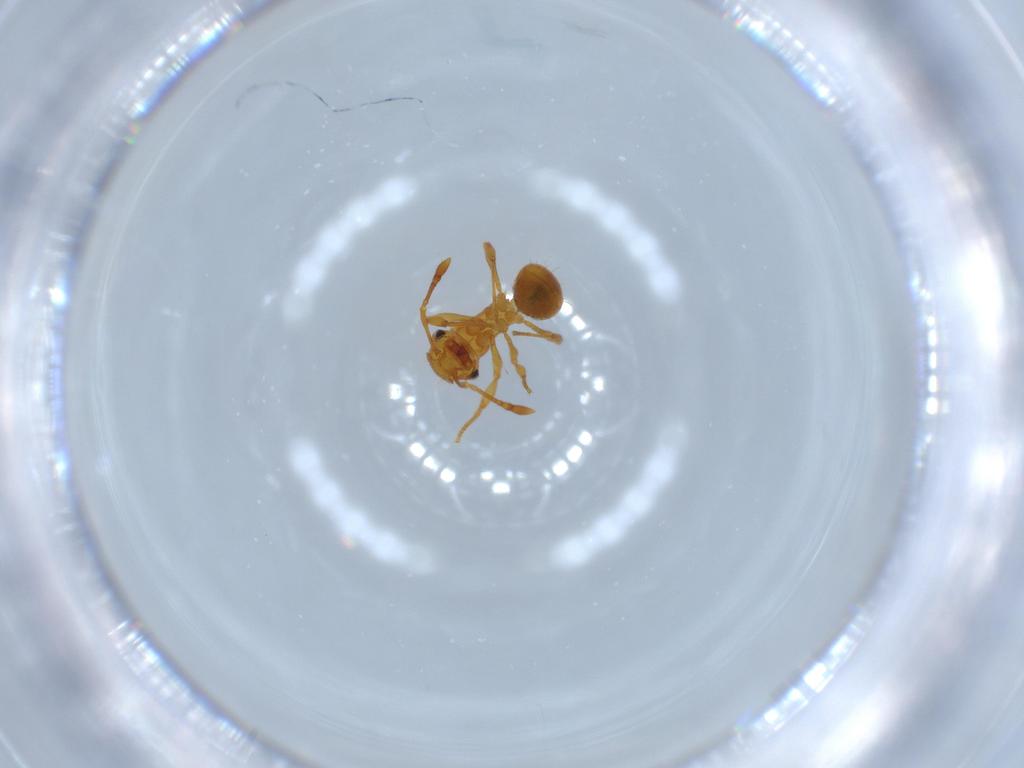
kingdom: Animalia
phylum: Arthropoda
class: Insecta
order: Hymenoptera
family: Formicidae
